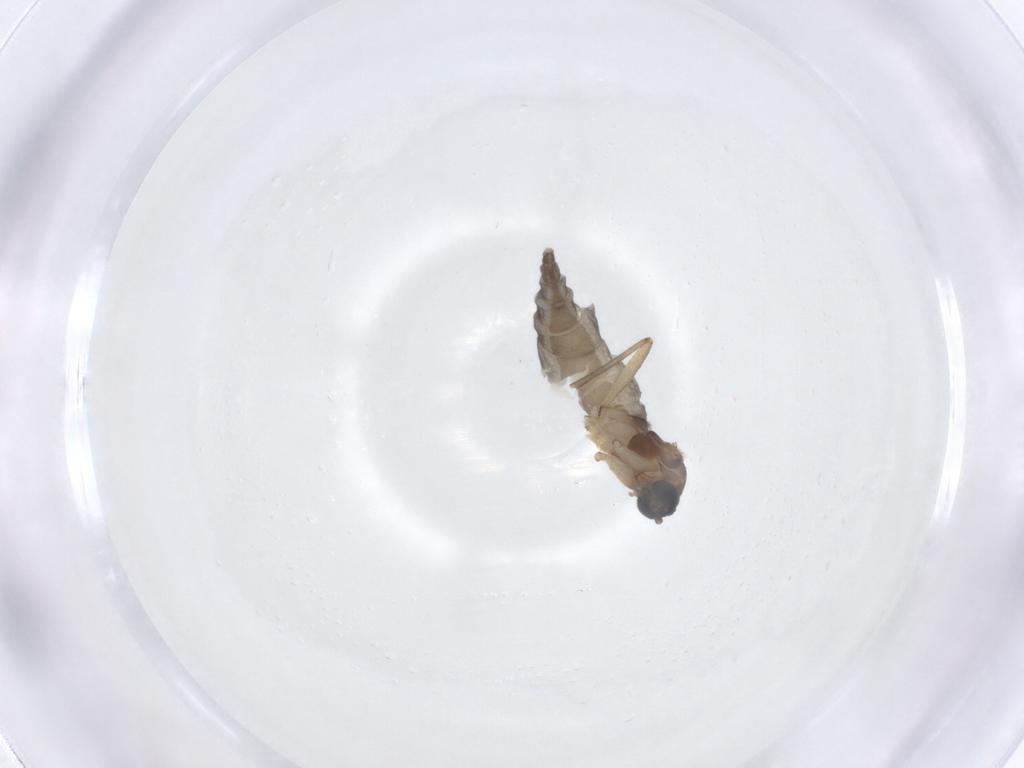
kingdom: Animalia
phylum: Arthropoda
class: Insecta
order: Diptera
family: Sciaridae
